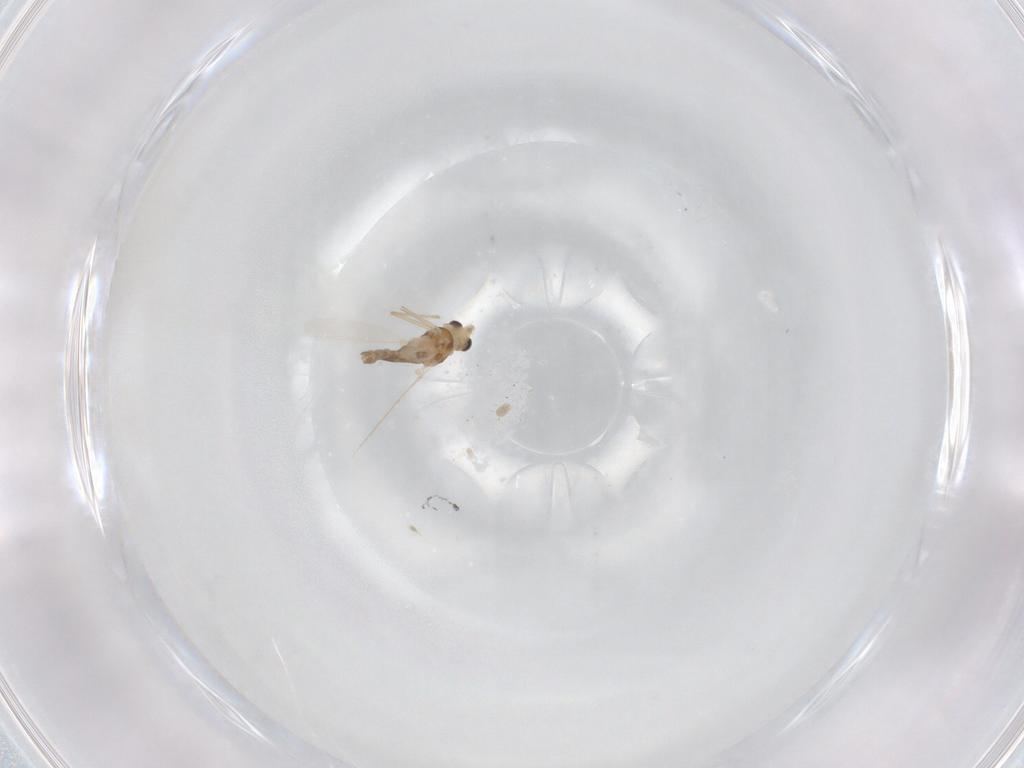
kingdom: Animalia
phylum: Arthropoda
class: Insecta
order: Diptera
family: Chironomidae
